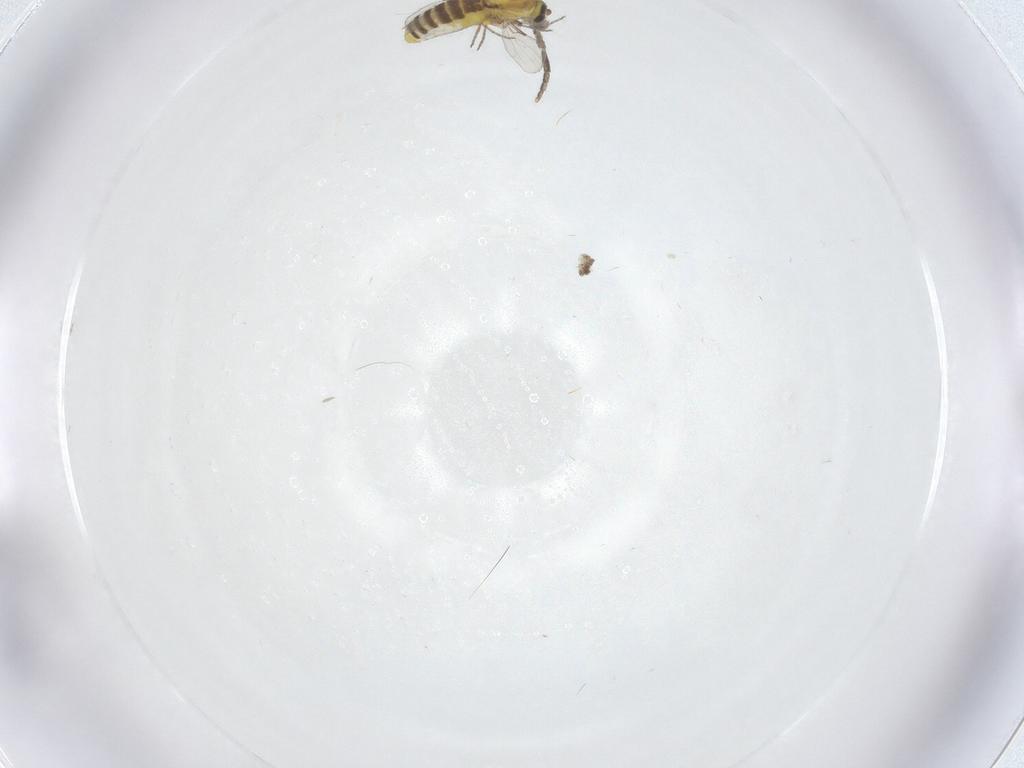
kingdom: Animalia
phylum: Arthropoda
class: Insecta
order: Diptera
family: Ceratopogonidae
